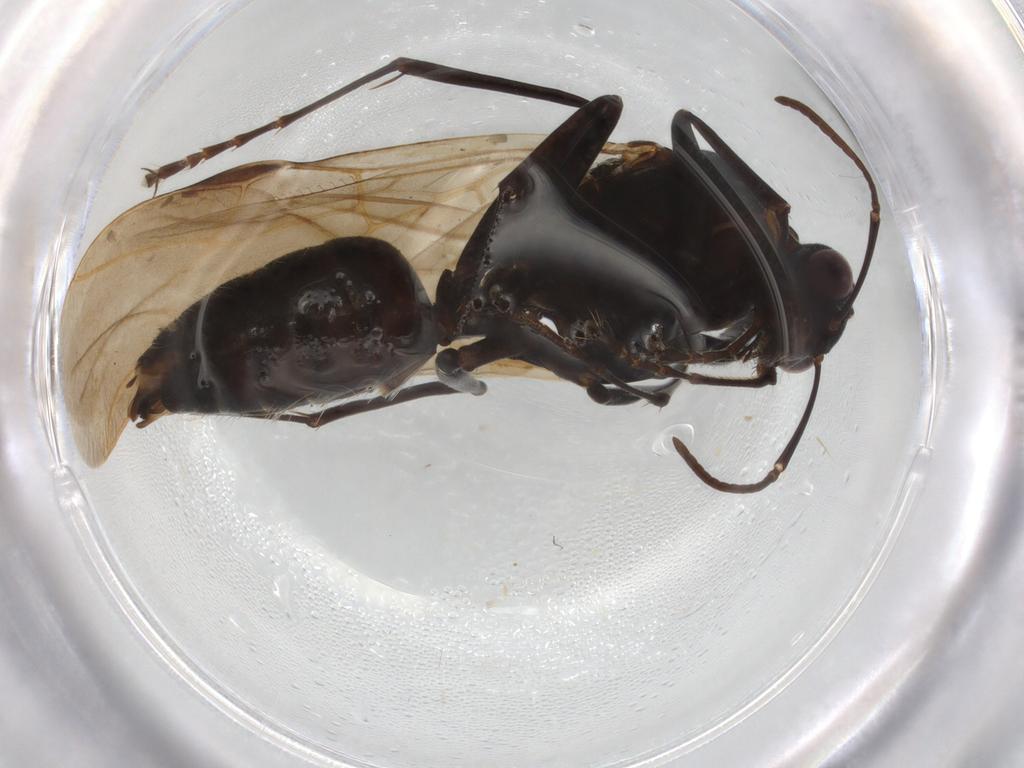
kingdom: Animalia
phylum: Arthropoda
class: Insecta
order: Hymenoptera
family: Formicidae
